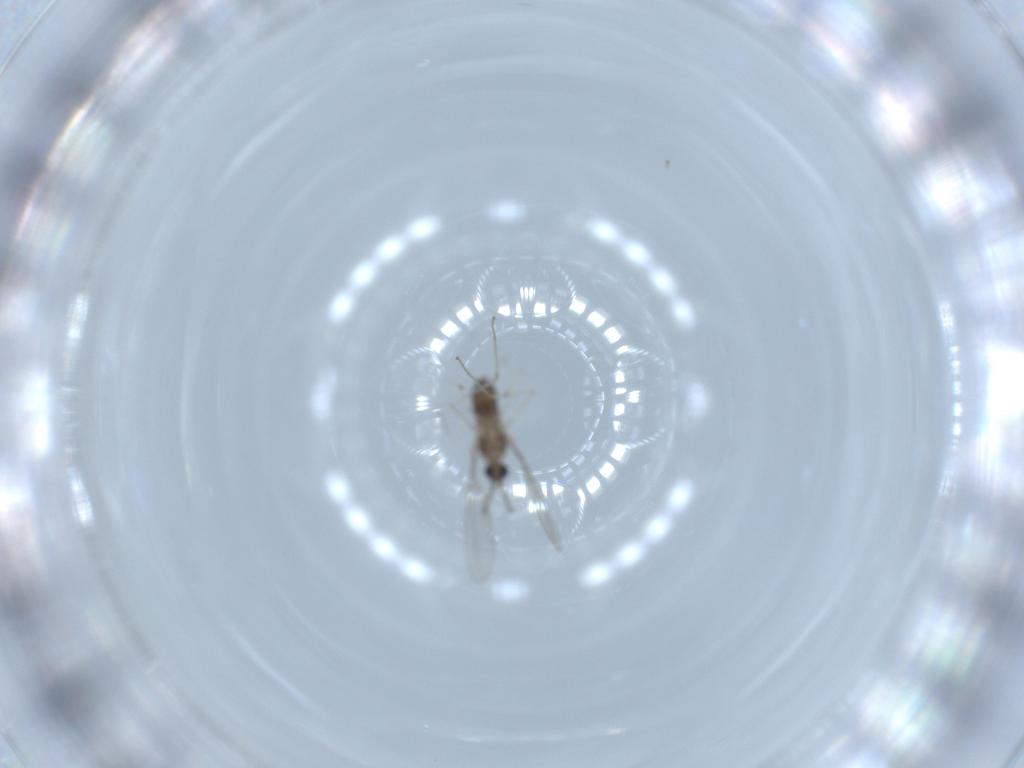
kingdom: Animalia
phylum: Arthropoda
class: Insecta
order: Diptera
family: Cecidomyiidae
